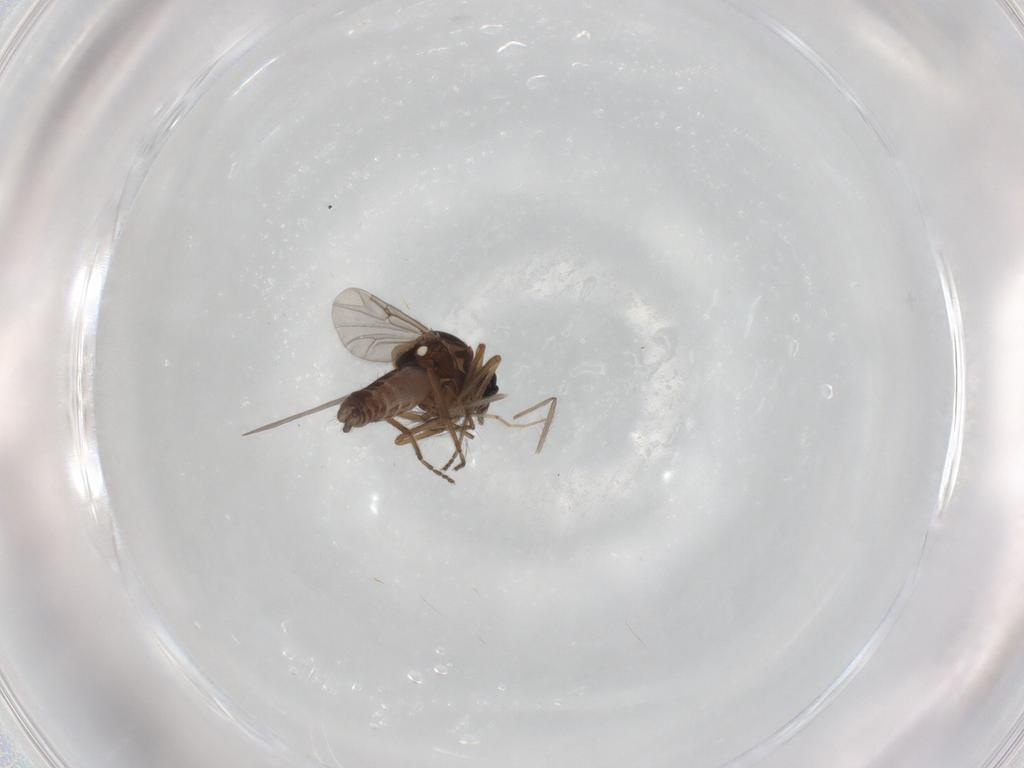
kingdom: Animalia
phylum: Arthropoda
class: Insecta
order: Diptera
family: Ceratopogonidae
